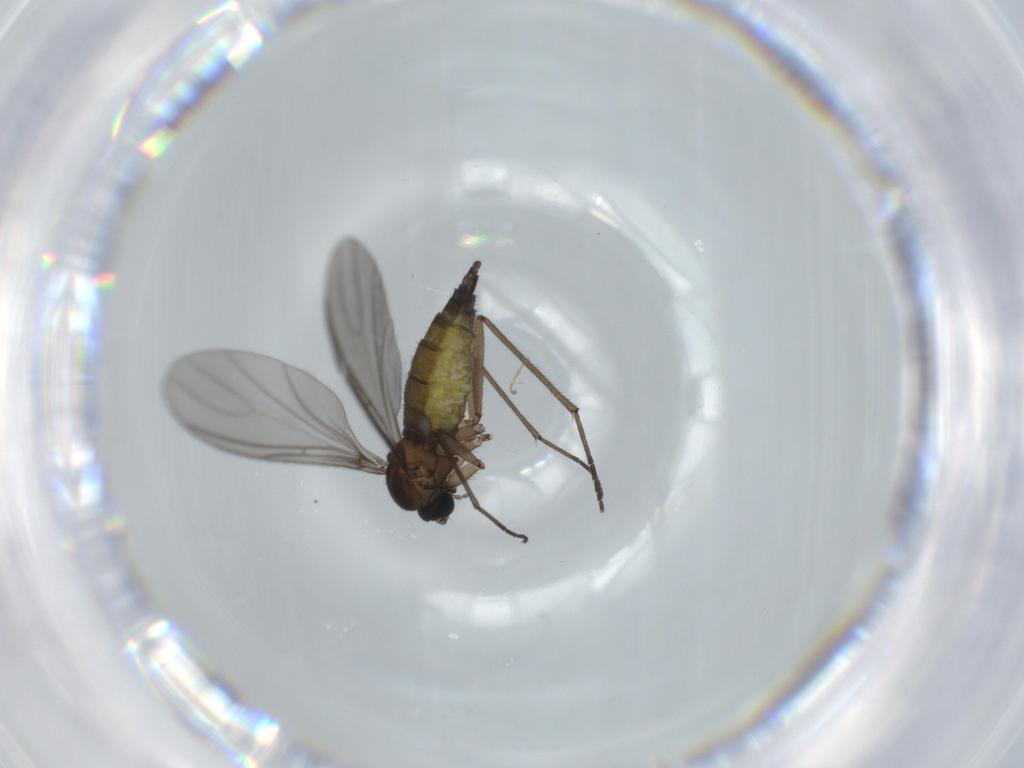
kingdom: Animalia
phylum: Arthropoda
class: Insecta
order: Diptera
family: Sciaridae
